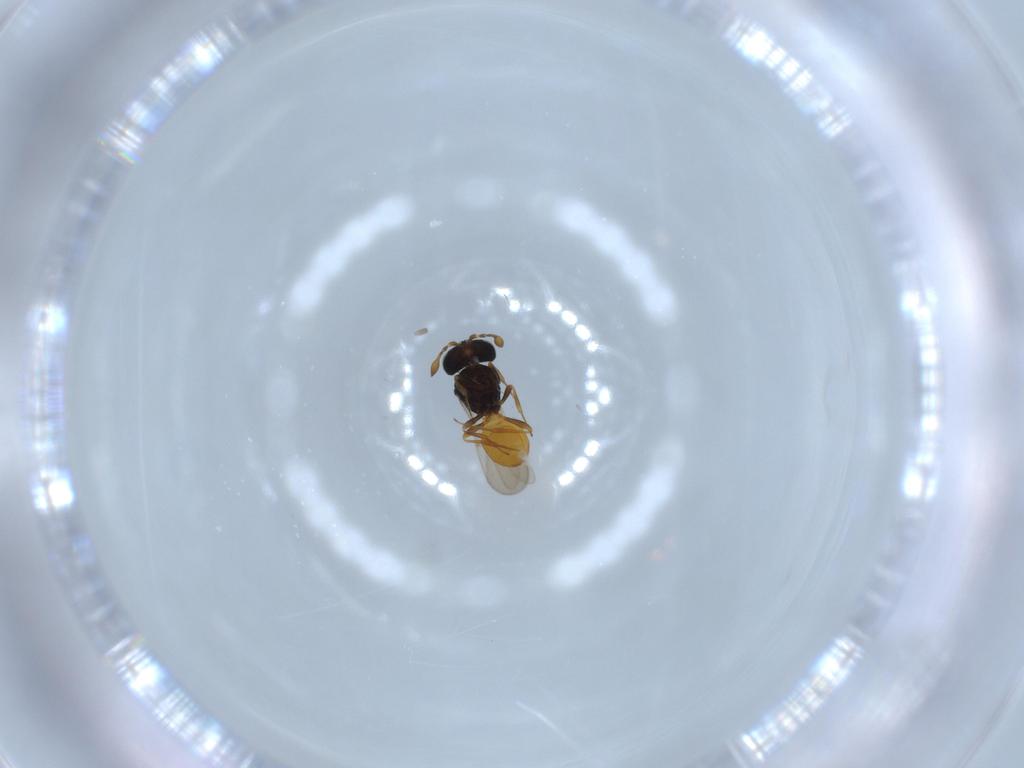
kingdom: Animalia
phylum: Arthropoda
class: Insecta
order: Hymenoptera
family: Scelionidae
